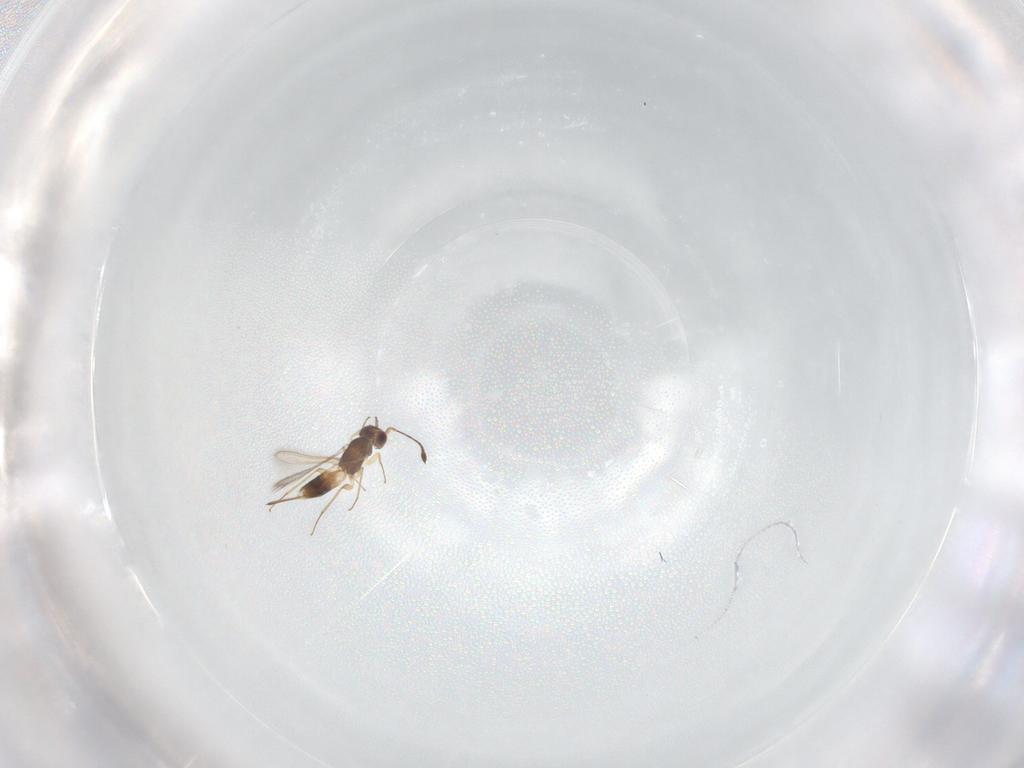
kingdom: Animalia
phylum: Arthropoda
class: Insecta
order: Hymenoptera
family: Mymaridae
